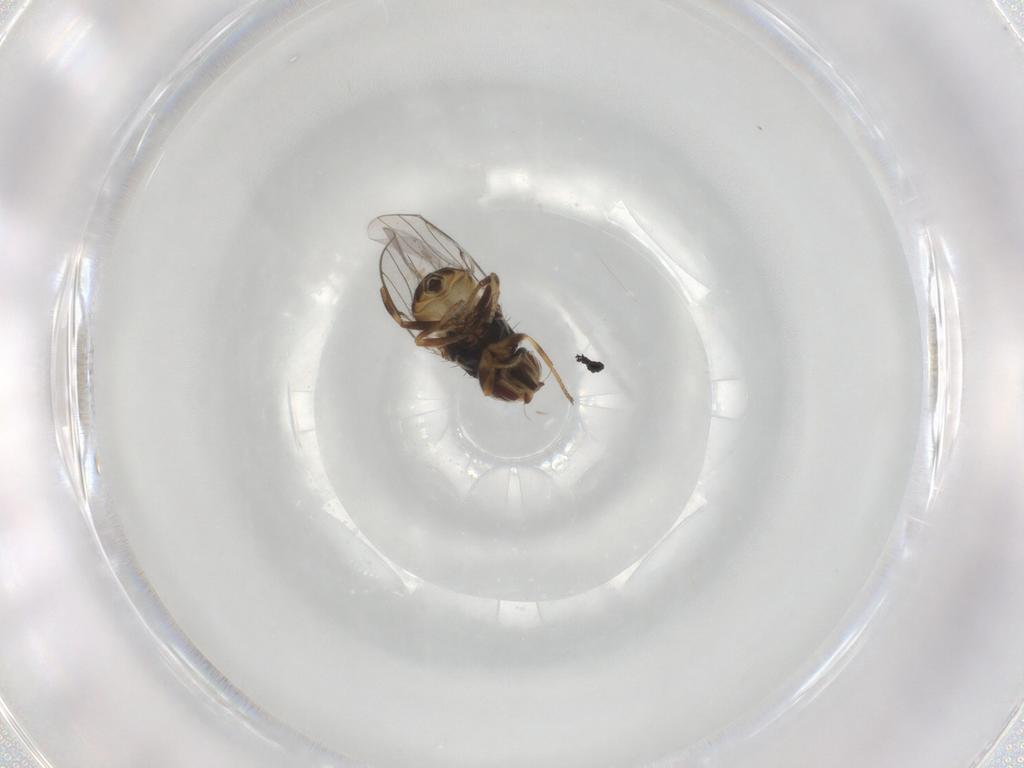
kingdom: Animalia
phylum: Arthropoda
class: Insecta
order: Diptera
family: Chloropidae
